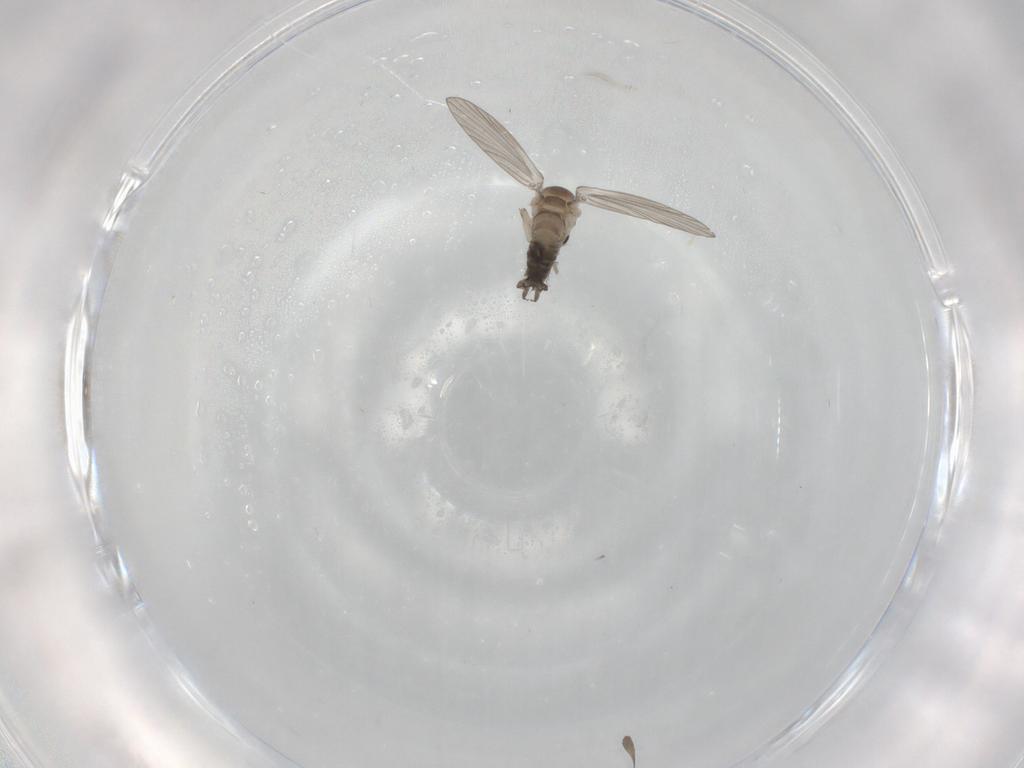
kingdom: Animalia
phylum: Arthropoda
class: Insecta
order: Diptera
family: Psychodidae
